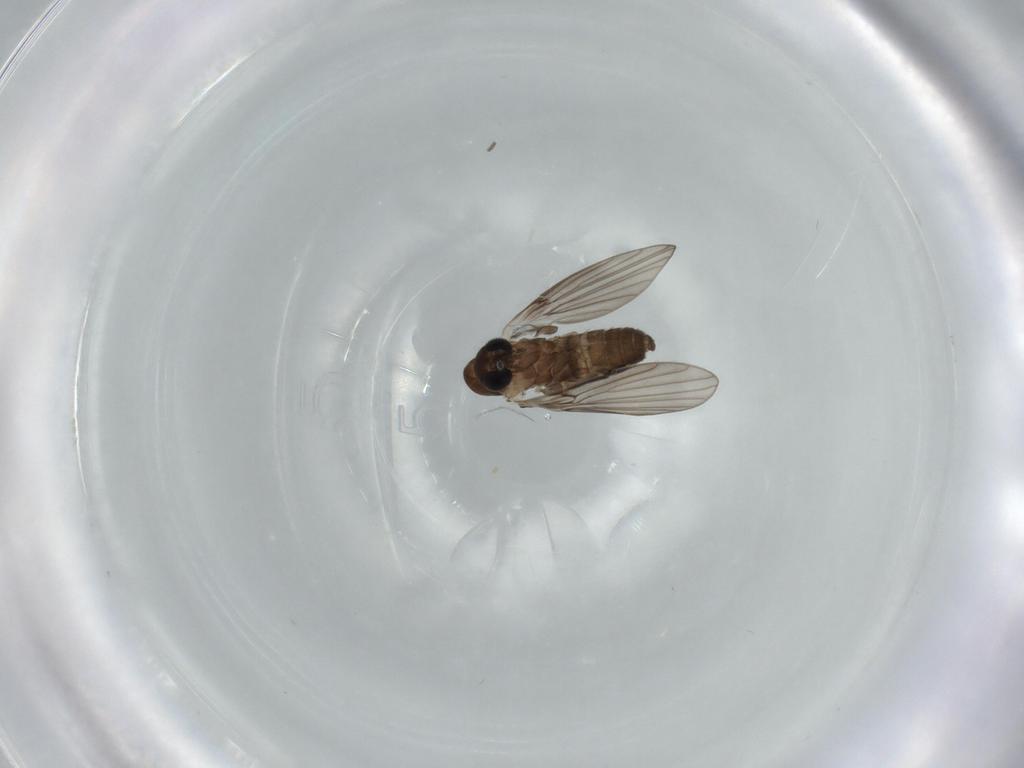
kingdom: Animalia
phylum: Arthropoda
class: Insecta
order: Diptera
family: Psychodidae
